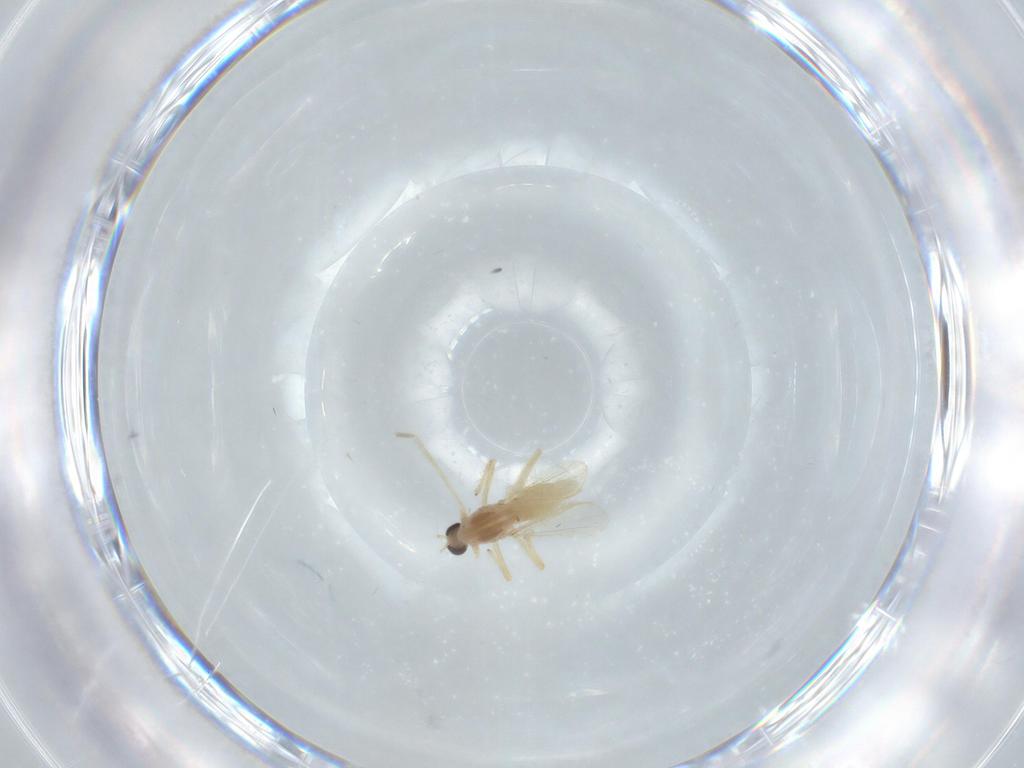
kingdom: Animalia
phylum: Arthropoda
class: Insecta
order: Diptera
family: Chironomidae
